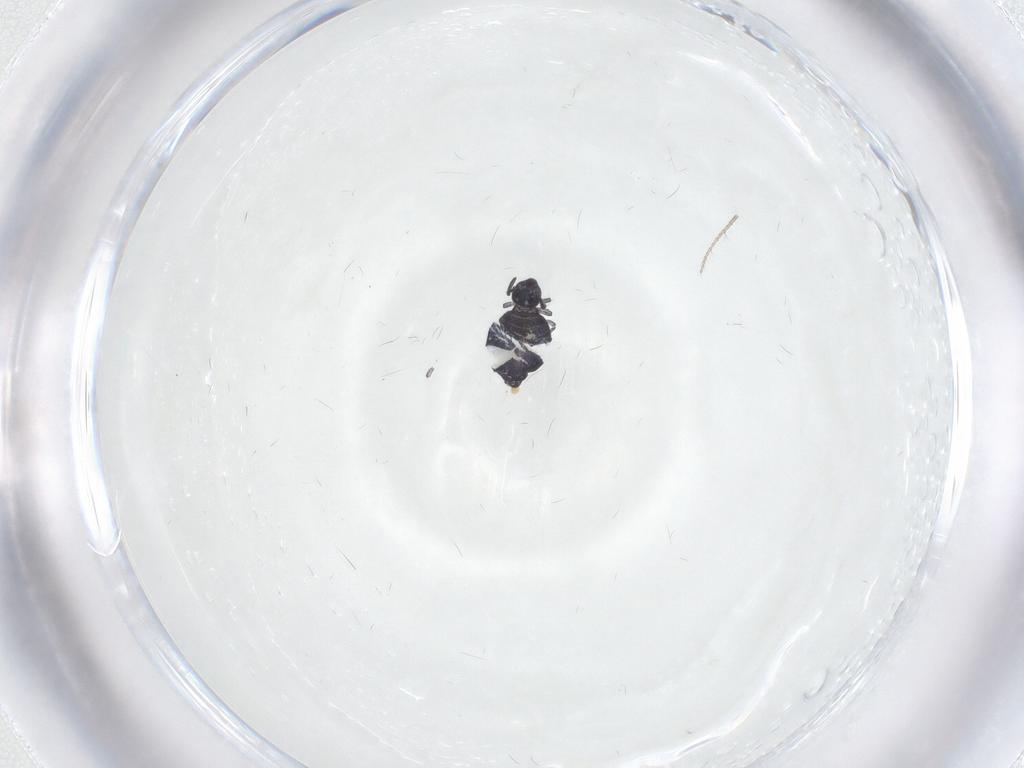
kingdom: Animalia
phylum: Arthropoda
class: Collembola
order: Symphypleona
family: Katiannidae
